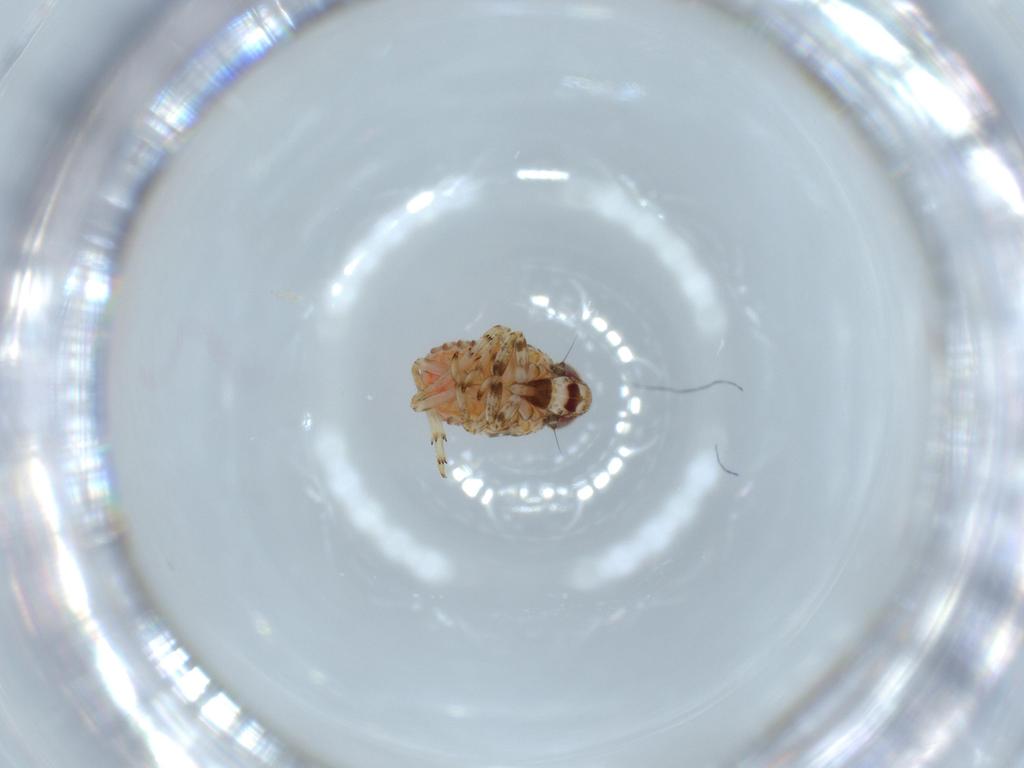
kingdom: Animalia
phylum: Arthropoda
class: Insecta
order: Hemiptera
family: Issidae
